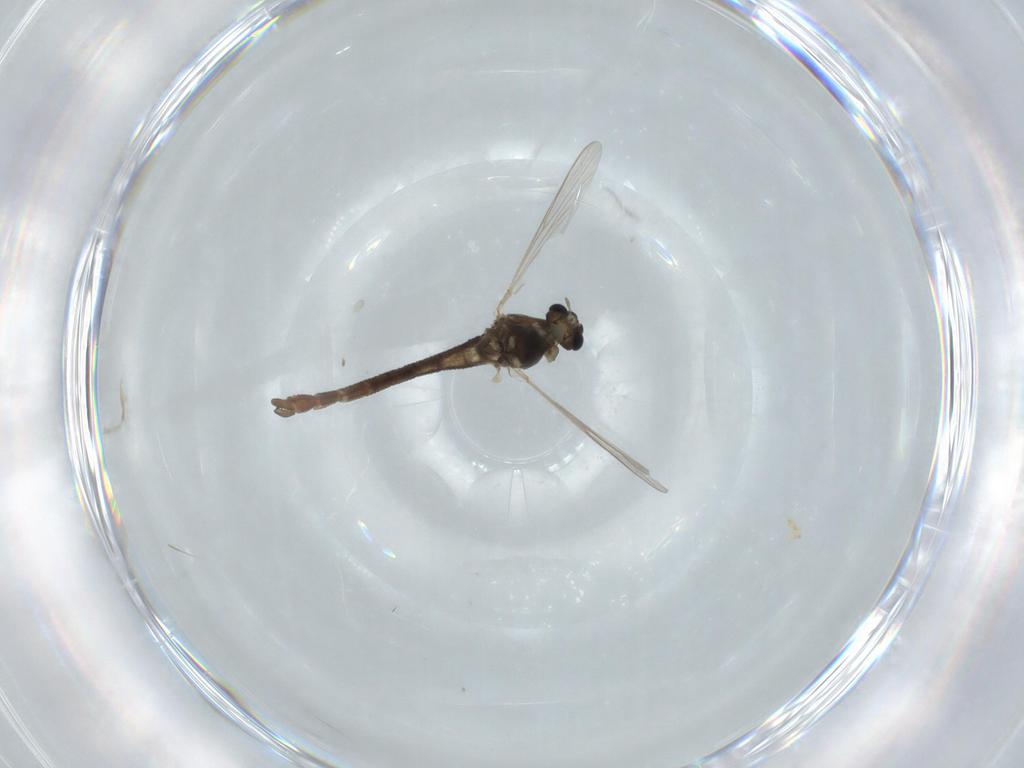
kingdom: Animalia
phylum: Arthropoda
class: Insecta
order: Diptera
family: Chironomidae
